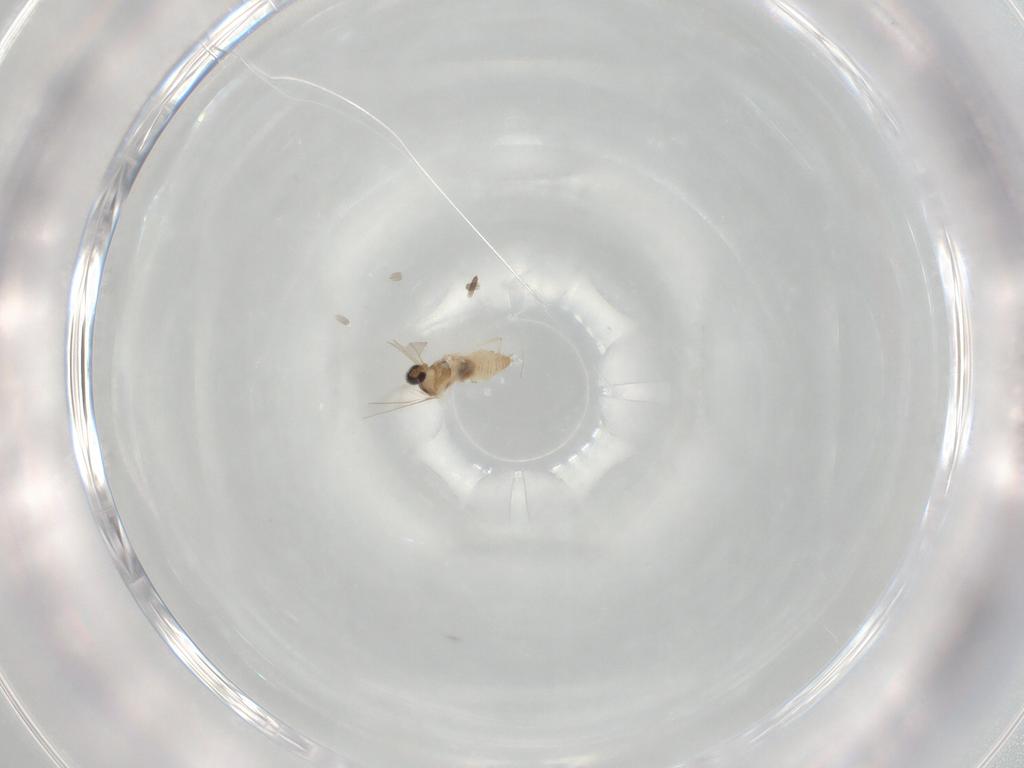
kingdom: Animalia
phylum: Arthropoda
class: Insecta
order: Diptera
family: Cecidomyiidae
